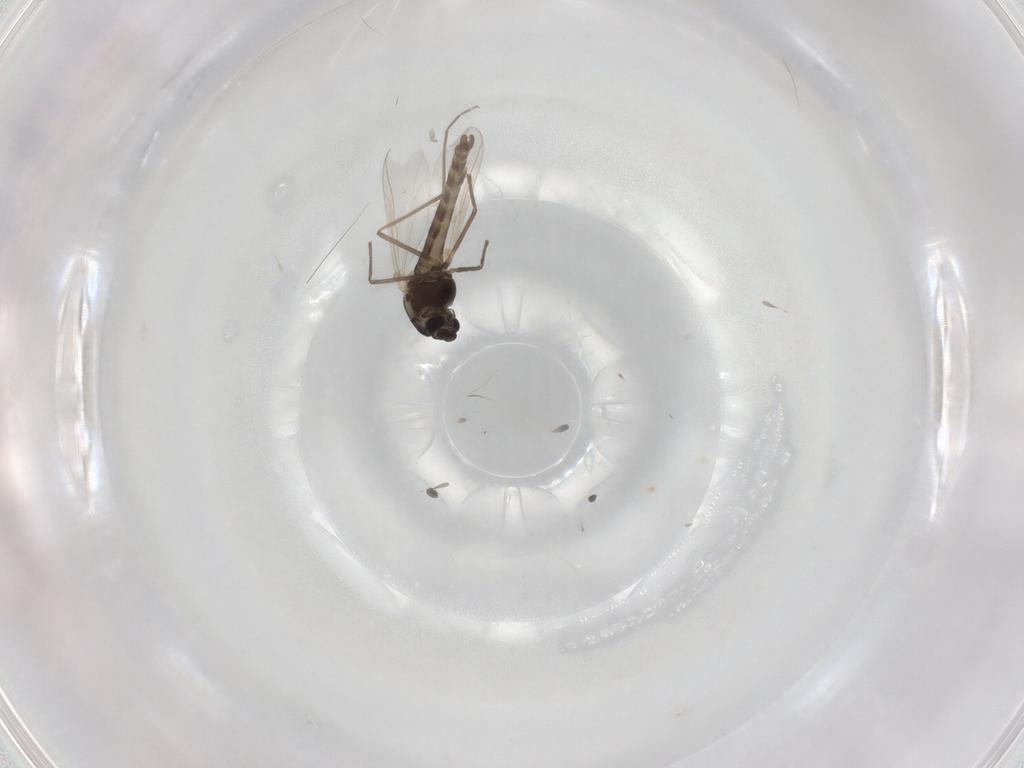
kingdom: Animalia
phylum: Arthropoda
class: Insecta
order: Diptera
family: Chironomidae
